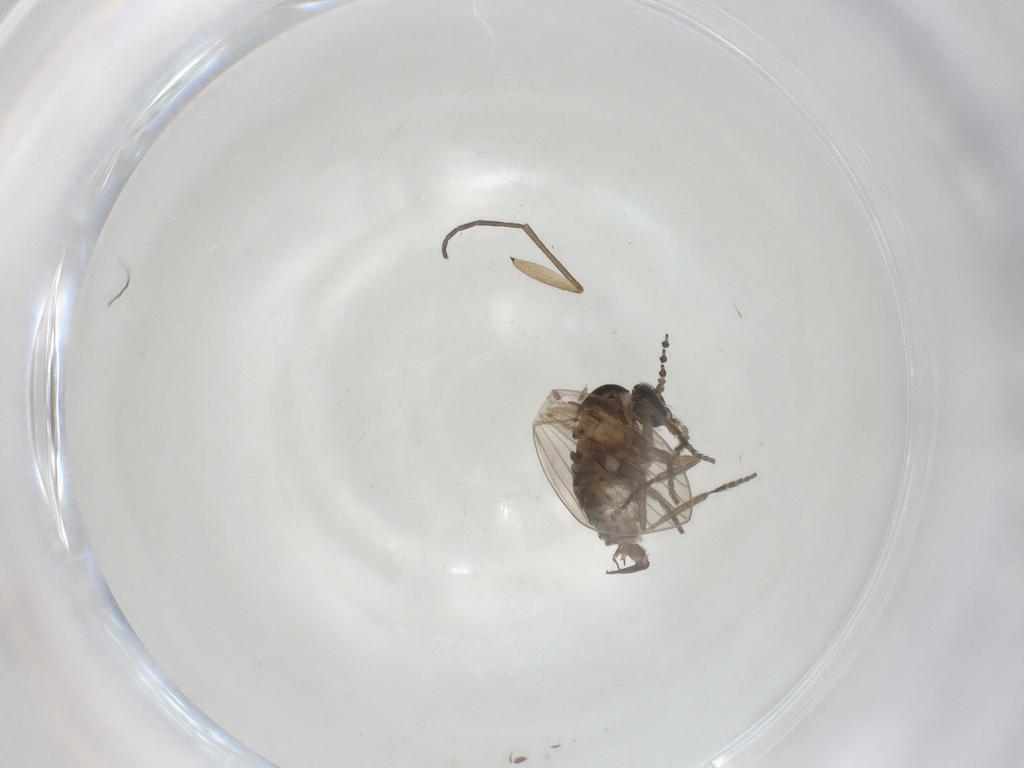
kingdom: Animalia
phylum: Arthropoda
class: Insecta
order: Diptera
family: Psychodidae
